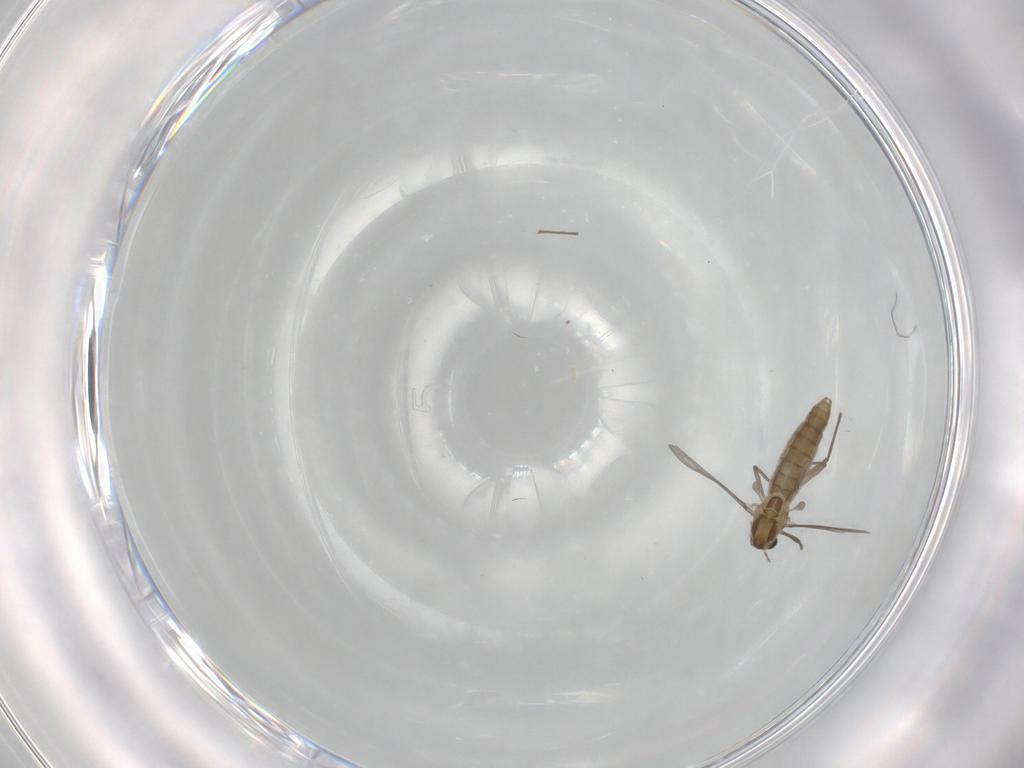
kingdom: Animalia
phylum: Arthropoda
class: Insecta
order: Diptera
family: Chironomidae
